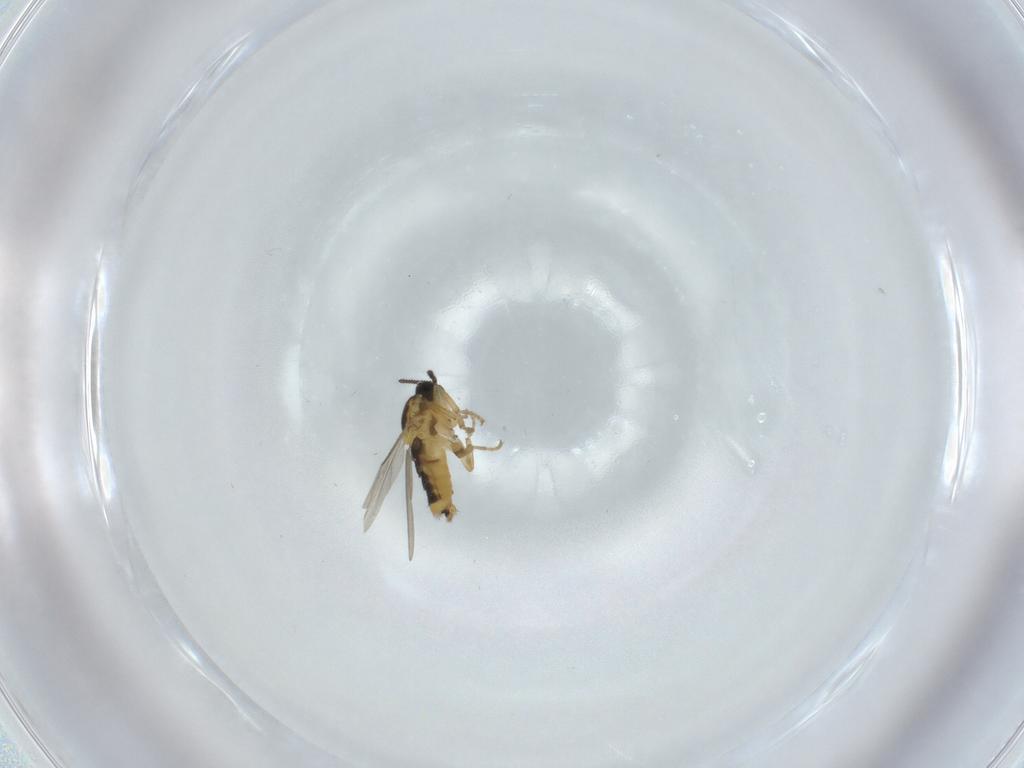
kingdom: Animalia
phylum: Arthropoda
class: Insecta
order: Diptera
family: Scatopsidae
